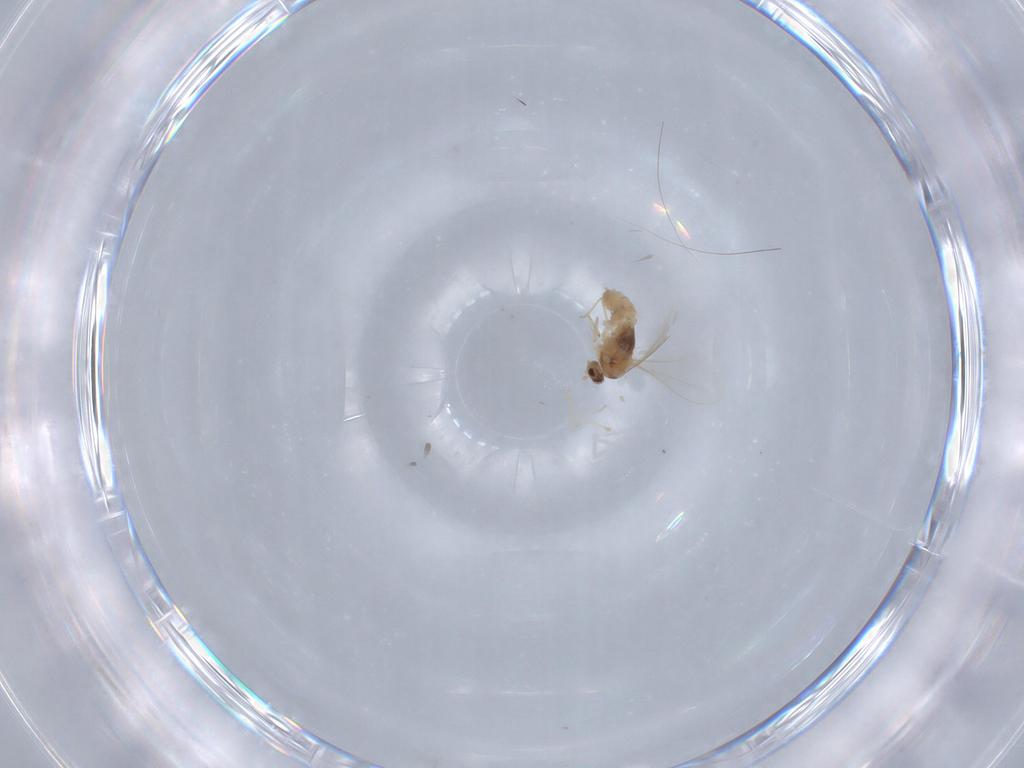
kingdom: Animalia
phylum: Arthropoda
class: Insecta
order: Diptera
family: Cecidomyiidae
